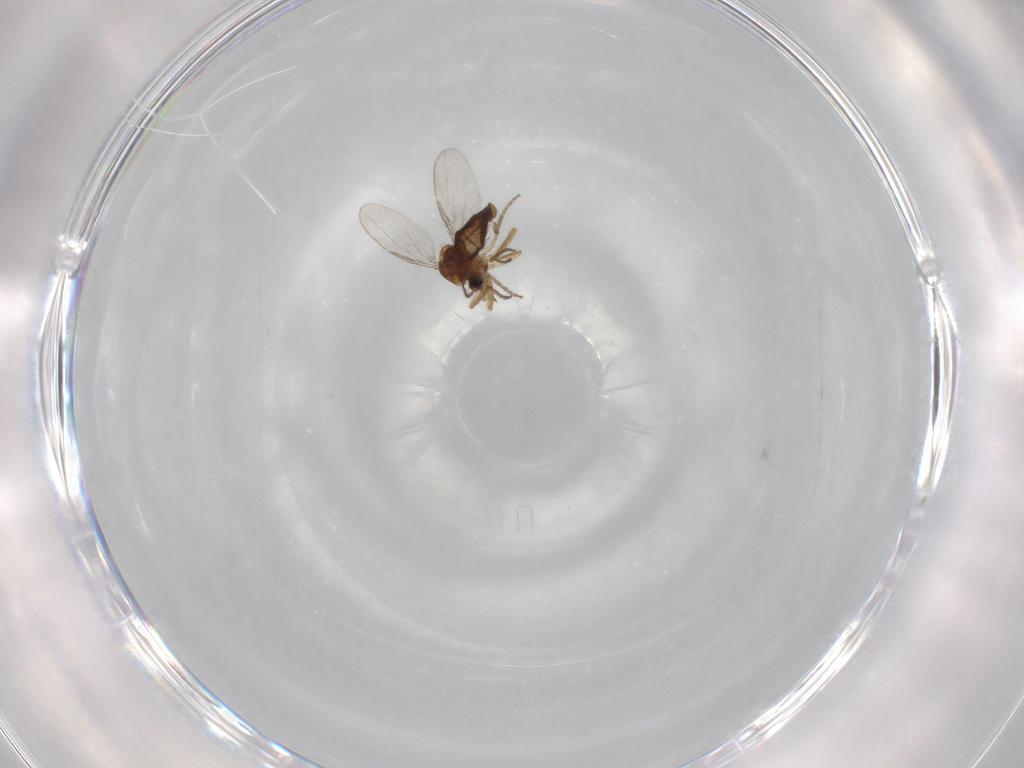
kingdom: Animalia
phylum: Arthropoda
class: Insecta
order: Diptera
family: Ceratopogonidae
